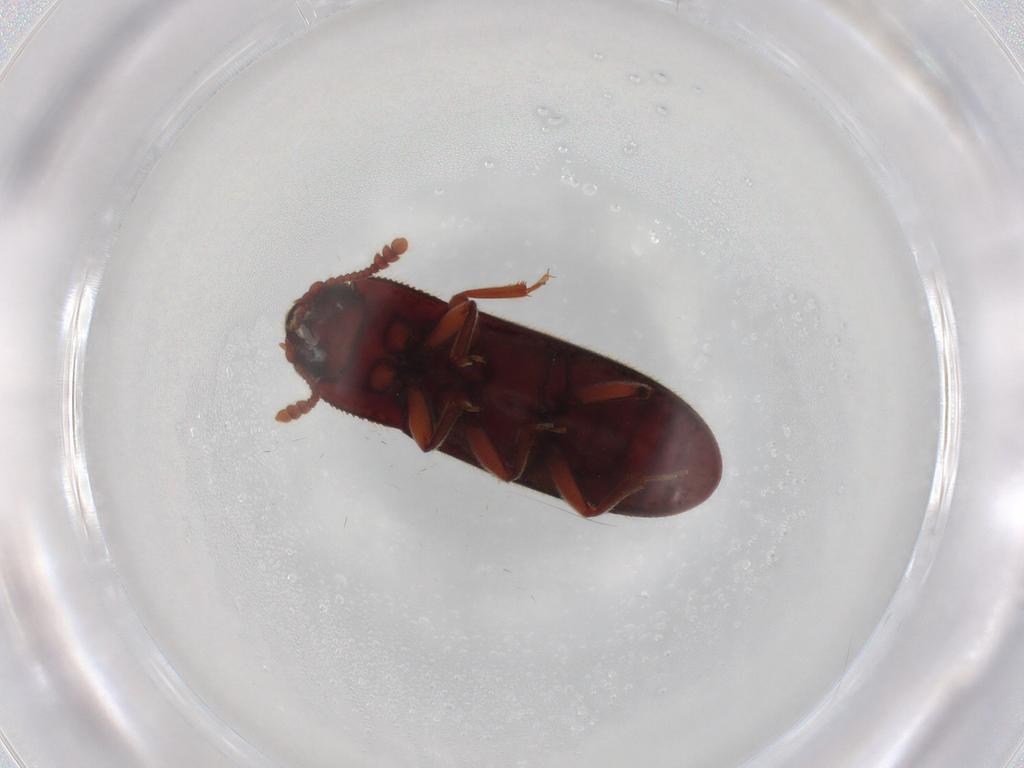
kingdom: Animalia
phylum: Arthropoda
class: Insecta
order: Coleoptera
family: Biphyllidae
